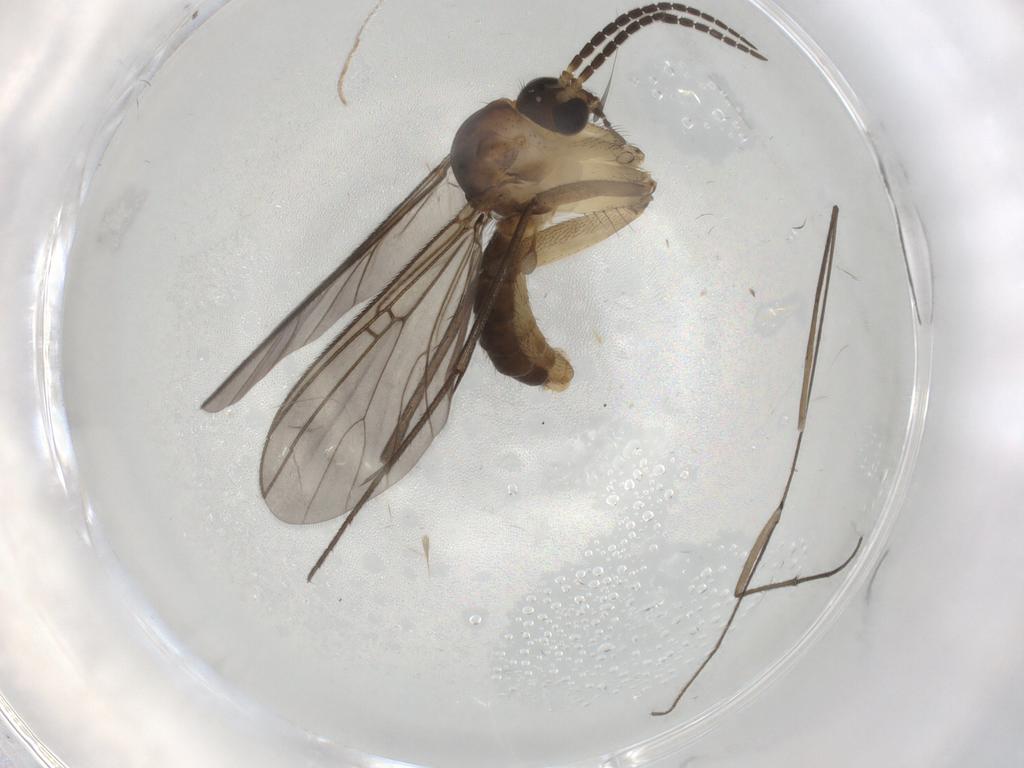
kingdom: Animalia
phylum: Arthropoda
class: Insecta
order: Diptera
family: Mycetophilidae
